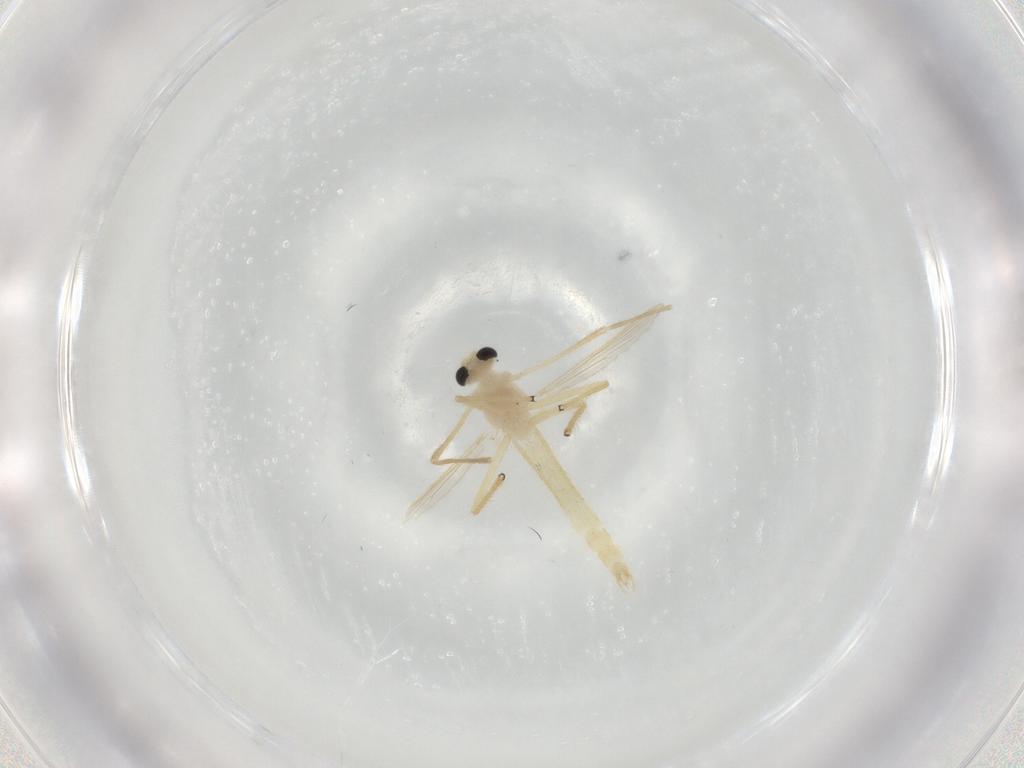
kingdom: Animalia
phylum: Arthropoda
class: Insecta
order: Diptera
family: Chironomidae
